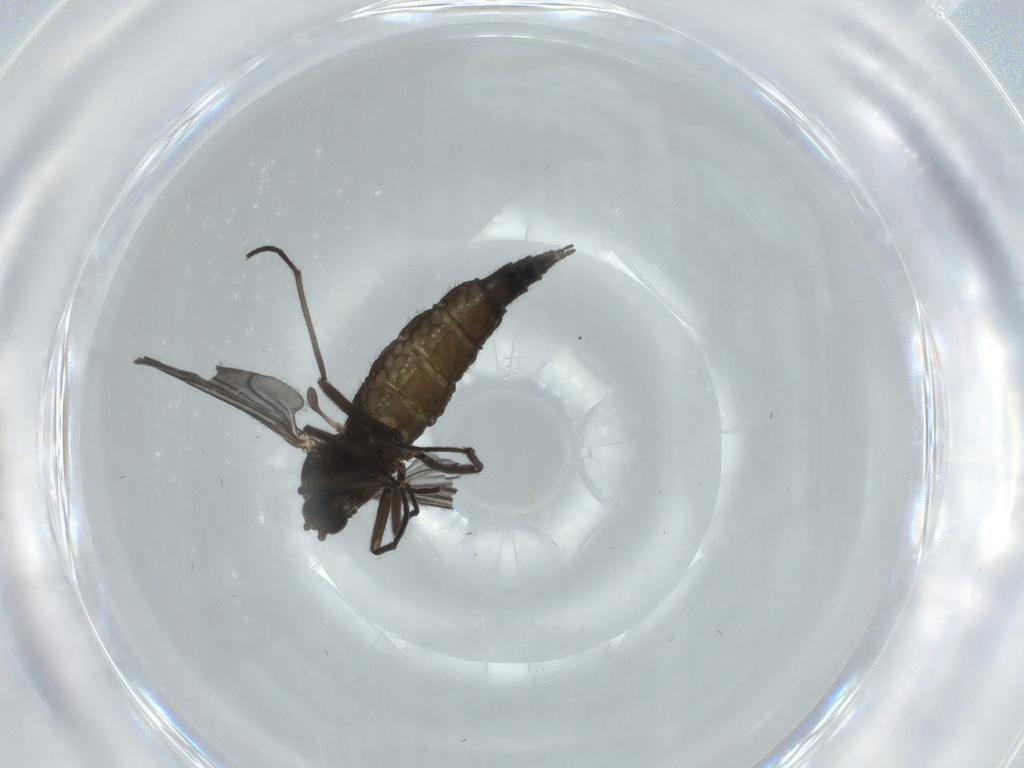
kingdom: Animalia
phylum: Arthropoda
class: Insecta
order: Diptera
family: Sciaridae
